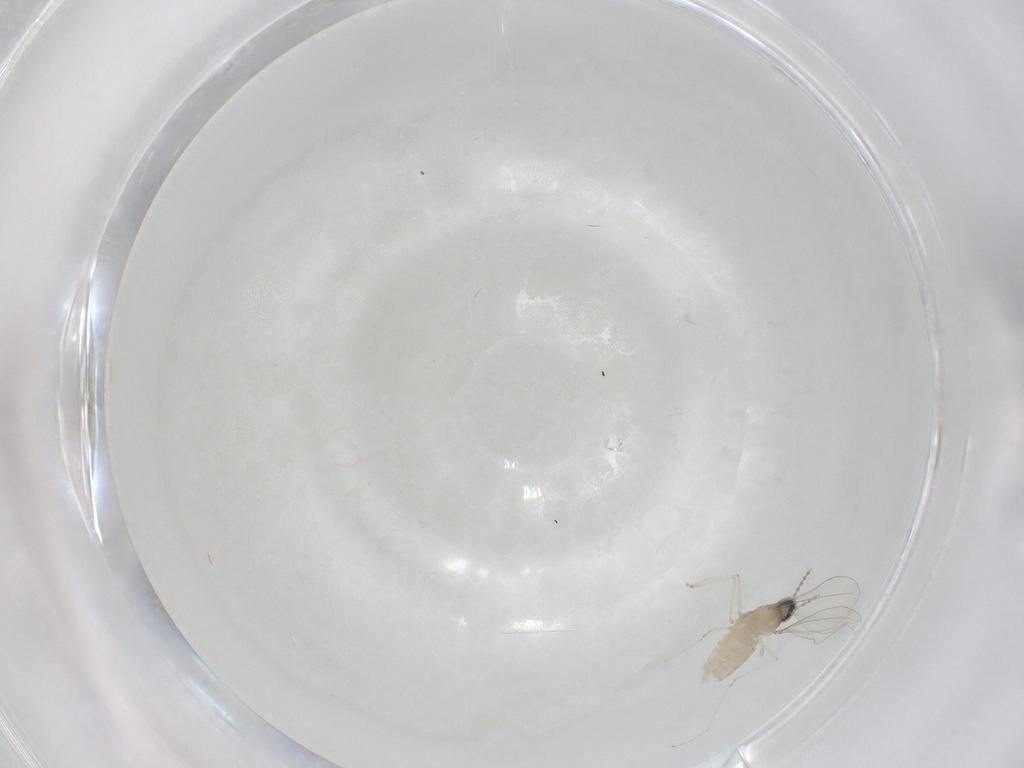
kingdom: Animalia
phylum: Arthropoda
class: Insecta
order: Diptera
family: Cecidomyiidae
